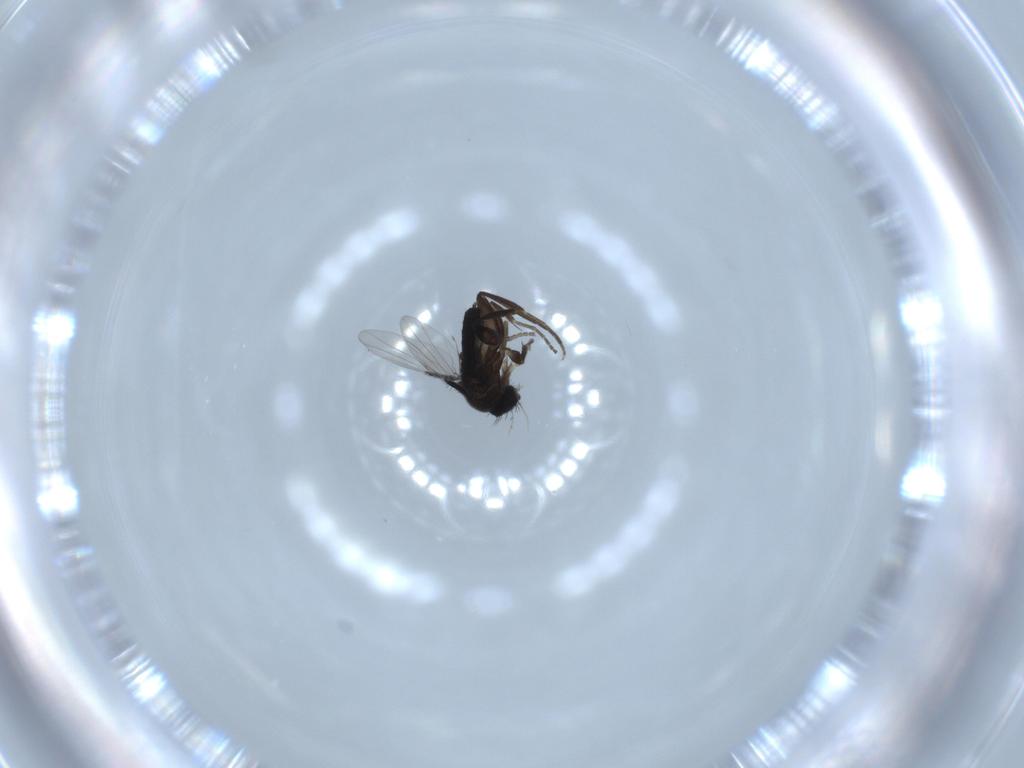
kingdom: Animalia
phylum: Arthropoda
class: Insecta
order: Diptera
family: Phoridae
